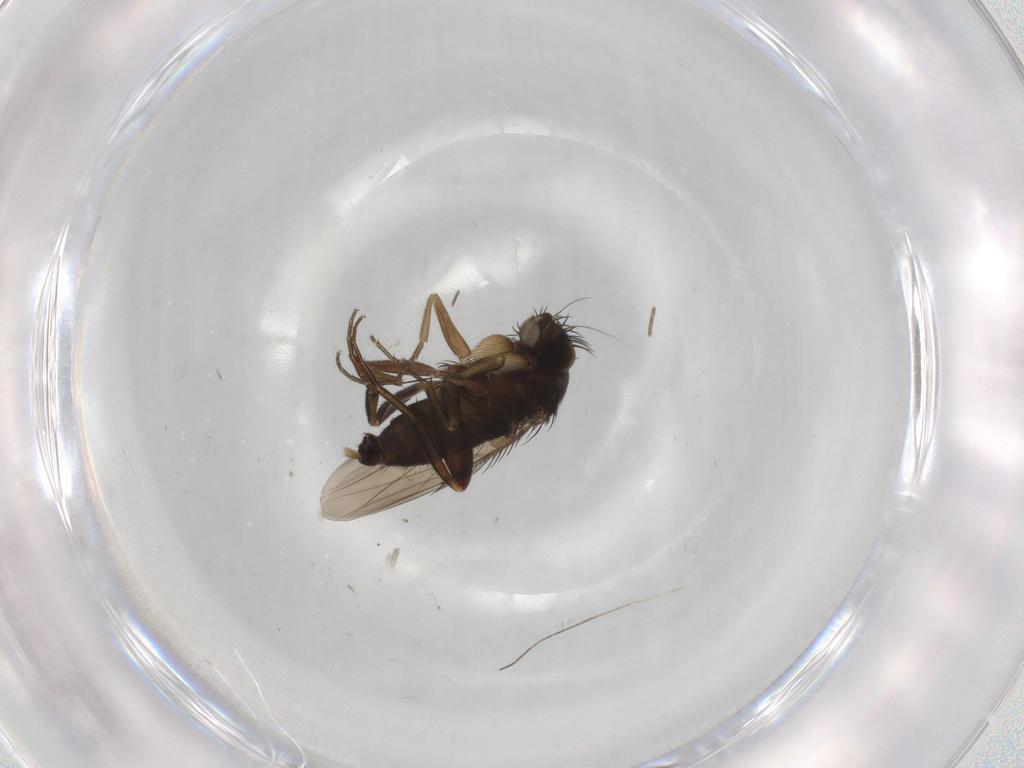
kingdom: Animalia
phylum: Arthropoda
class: Insecta
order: Diptera
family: Phoridae
